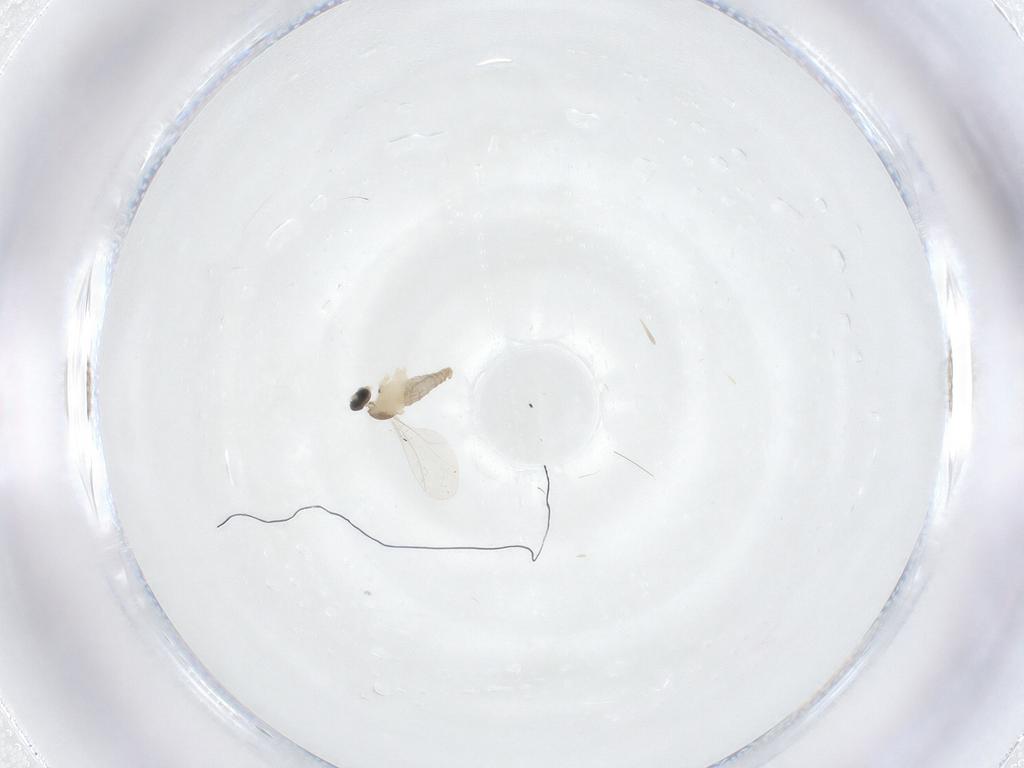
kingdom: Animalia
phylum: Arthropoda
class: Insecta
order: Diptera
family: Cecidomyiidae
